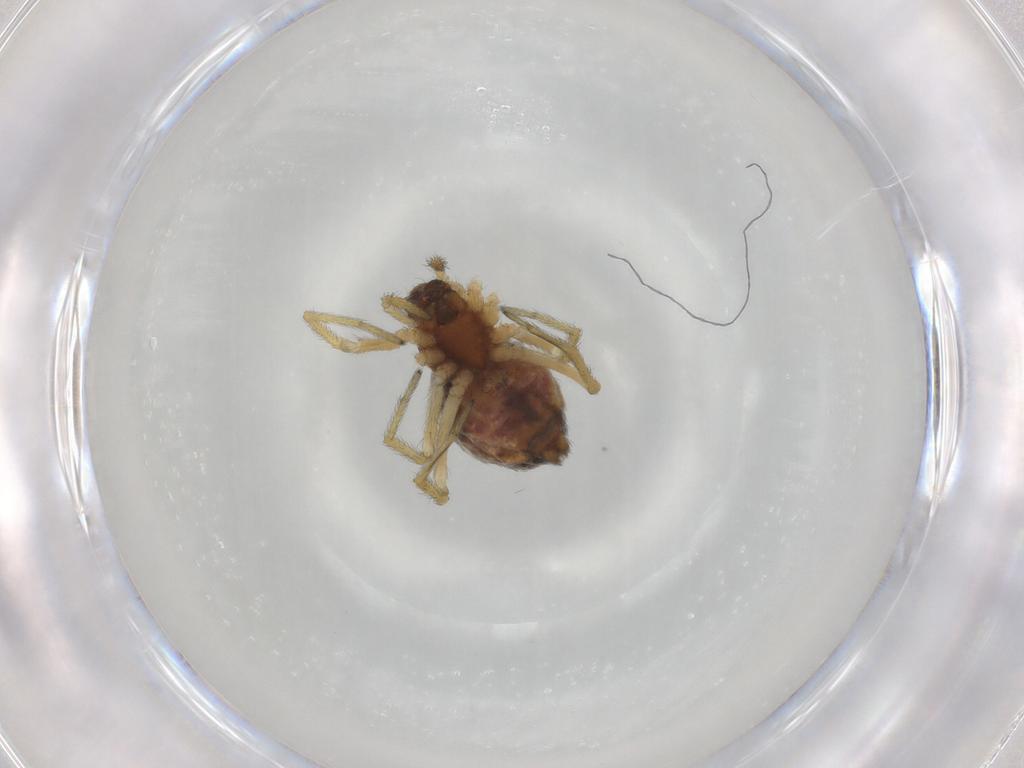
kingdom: Animalia
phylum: Arthropoda
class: Arachnida
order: Araneae
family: Dictynidae
